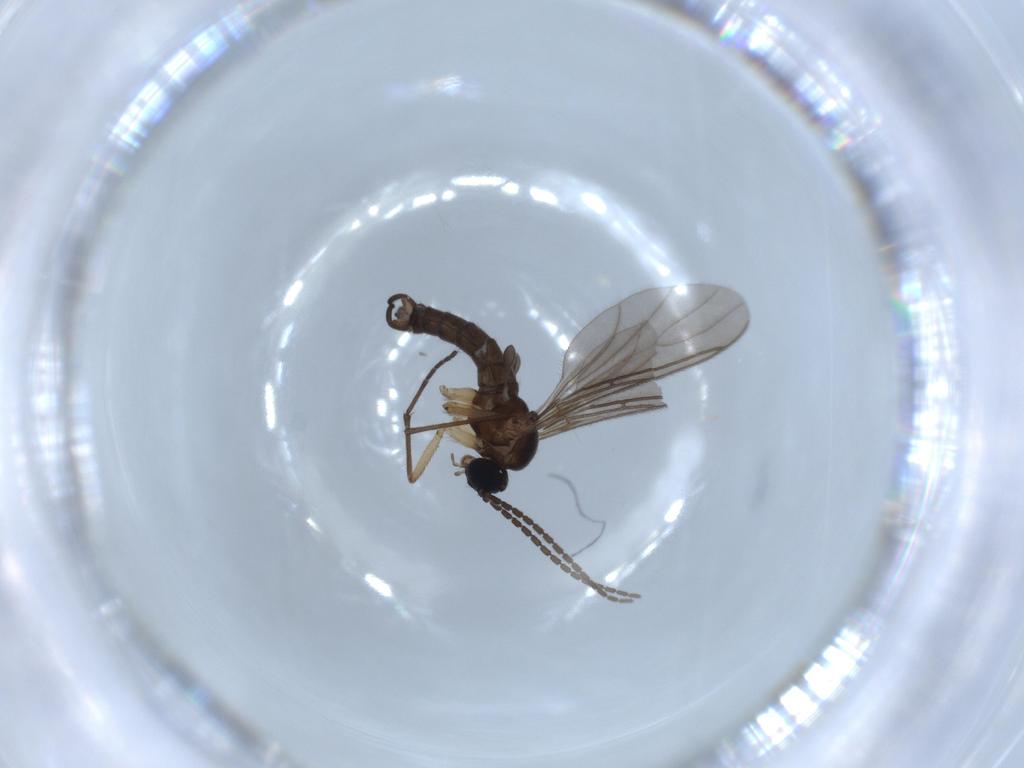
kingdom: Animalia
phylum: Arthropoda
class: Insecta
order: Diptera
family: Sciaridae
